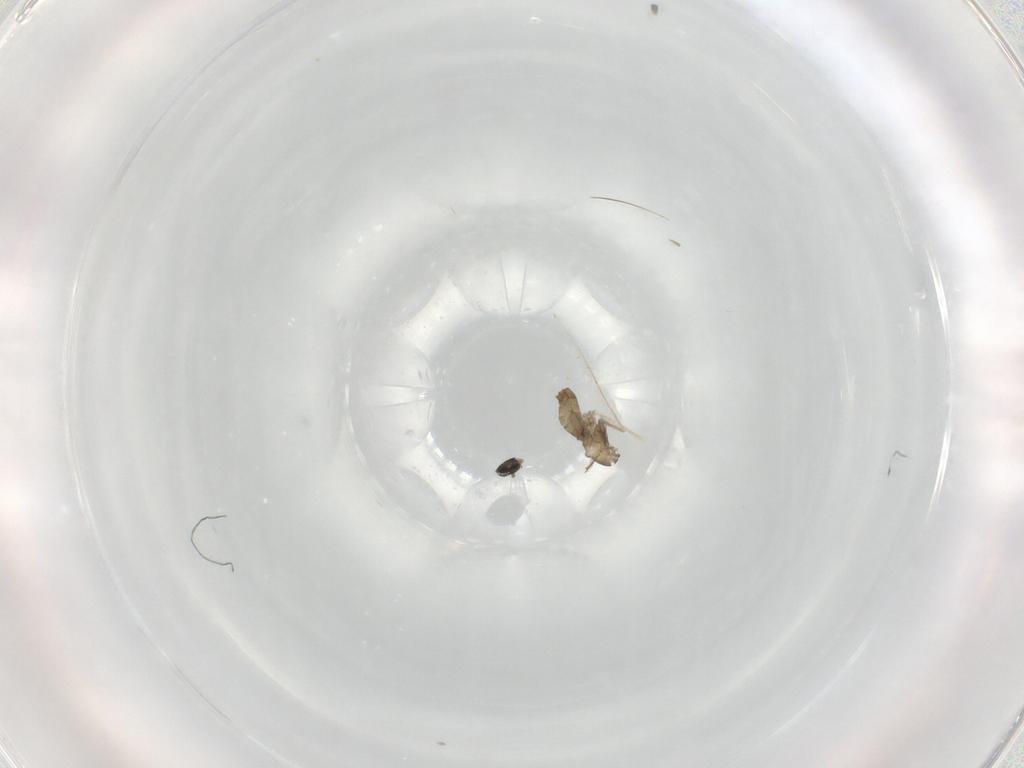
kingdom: Animalia
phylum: Arthropoda
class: Insecta
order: Diptera
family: Cecidomyiidae
